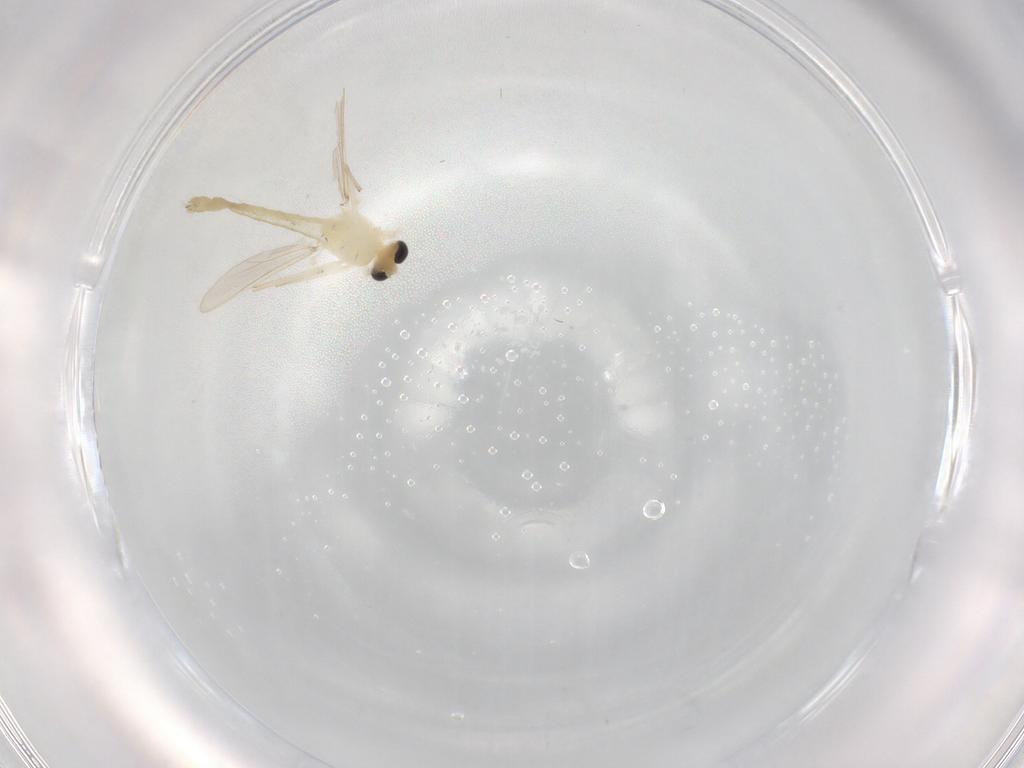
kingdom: Animalia
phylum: Arthropoda
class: Insecta
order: Diptera
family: Chironomidae
